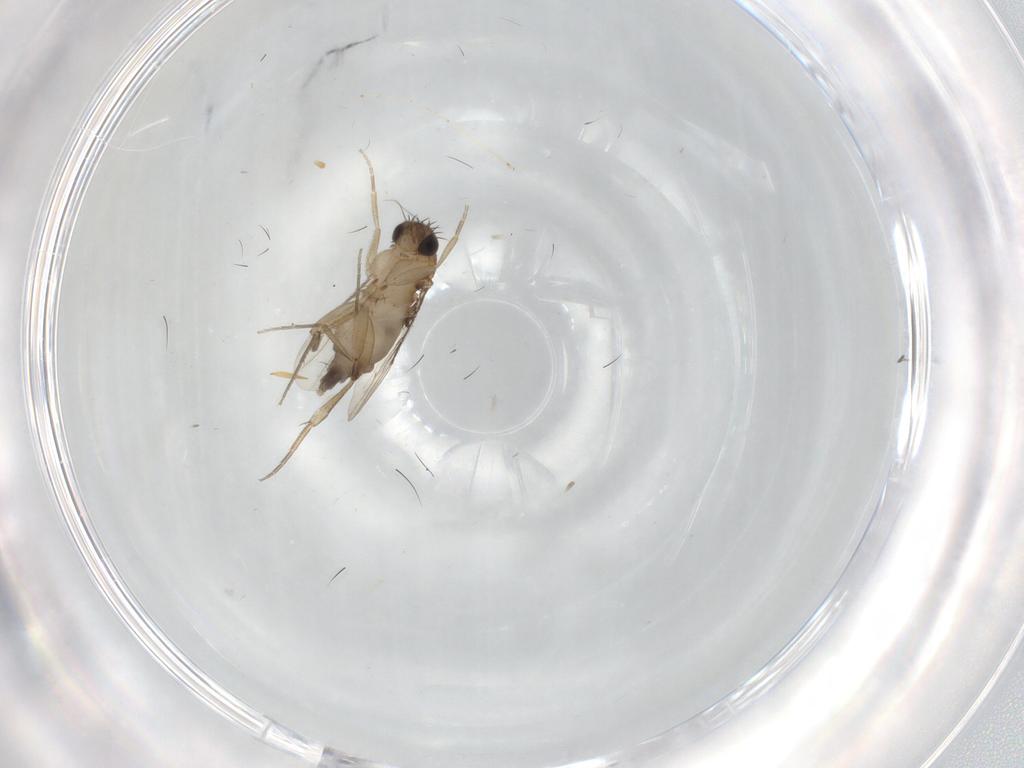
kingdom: Animalia
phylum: Arthropoda
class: Insecta
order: Diptera
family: Phoridae
